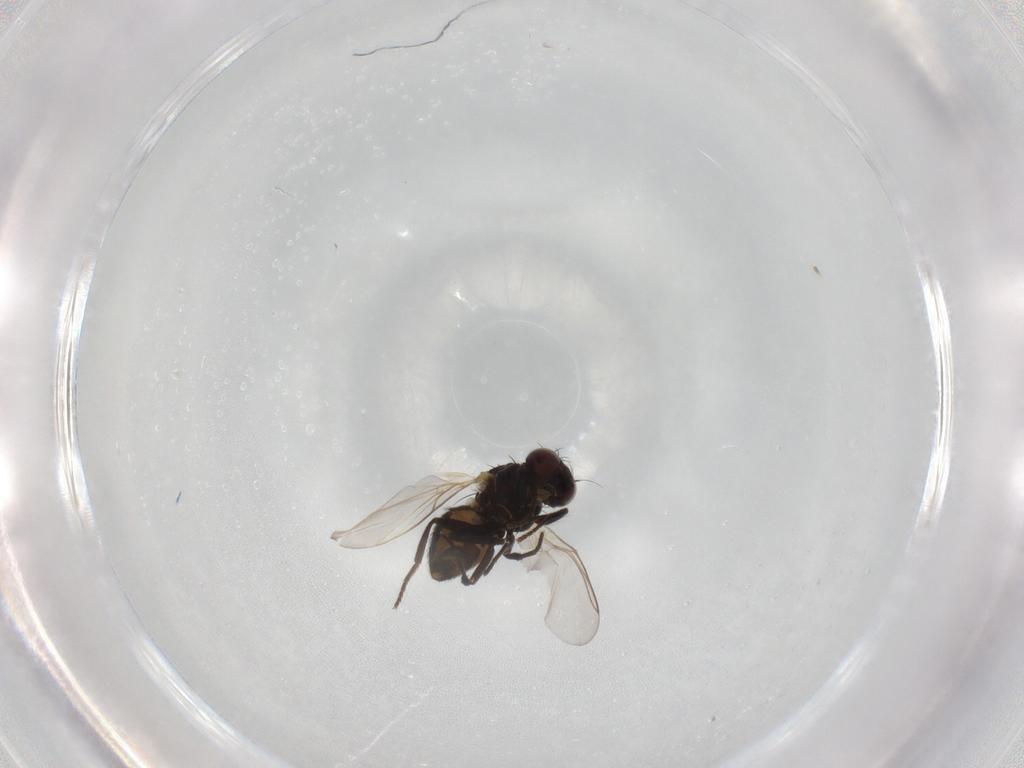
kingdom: Animalia
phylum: Arthropoda
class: Insecta
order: Diptera
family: Agromyzidae
